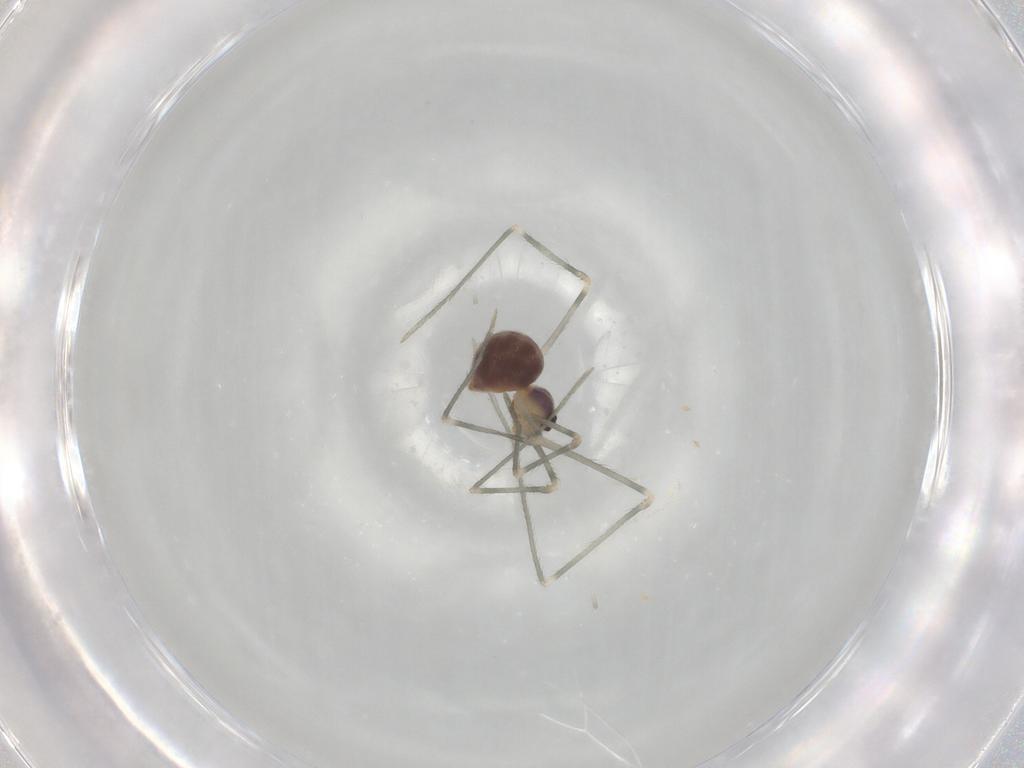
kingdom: Animalia
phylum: Arthropoda
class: Arachnida
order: Araneae
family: Pholcidae
